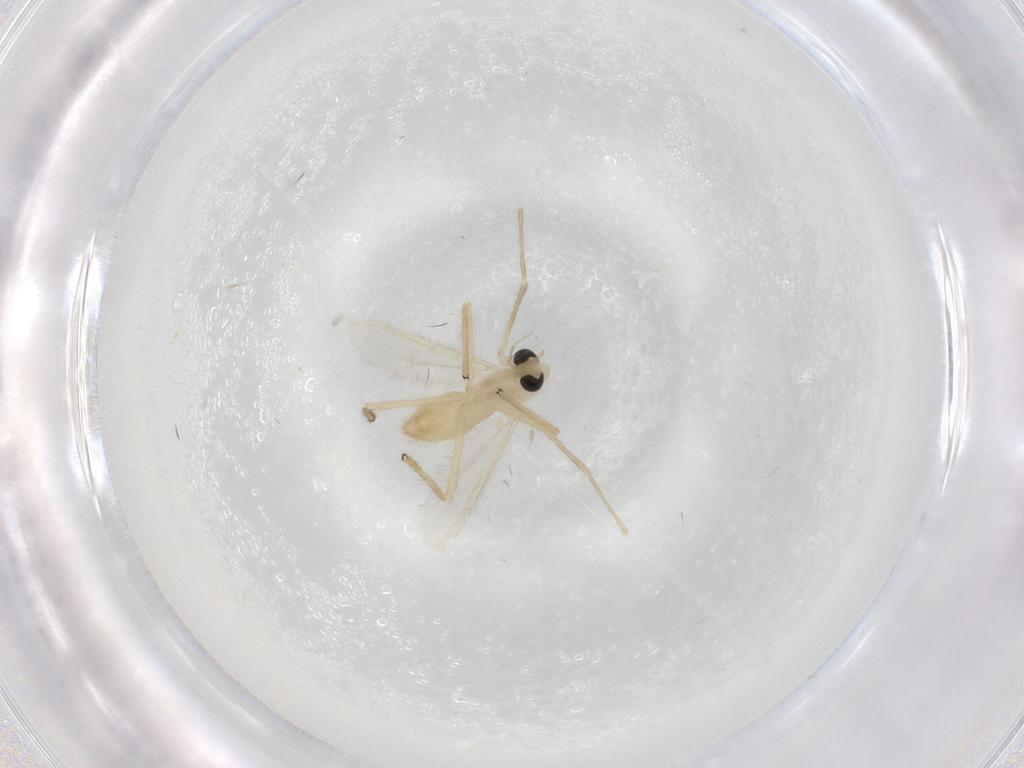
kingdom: Animalia
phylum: Arthropoda
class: Insecta
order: Diptera
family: Chironomidae
